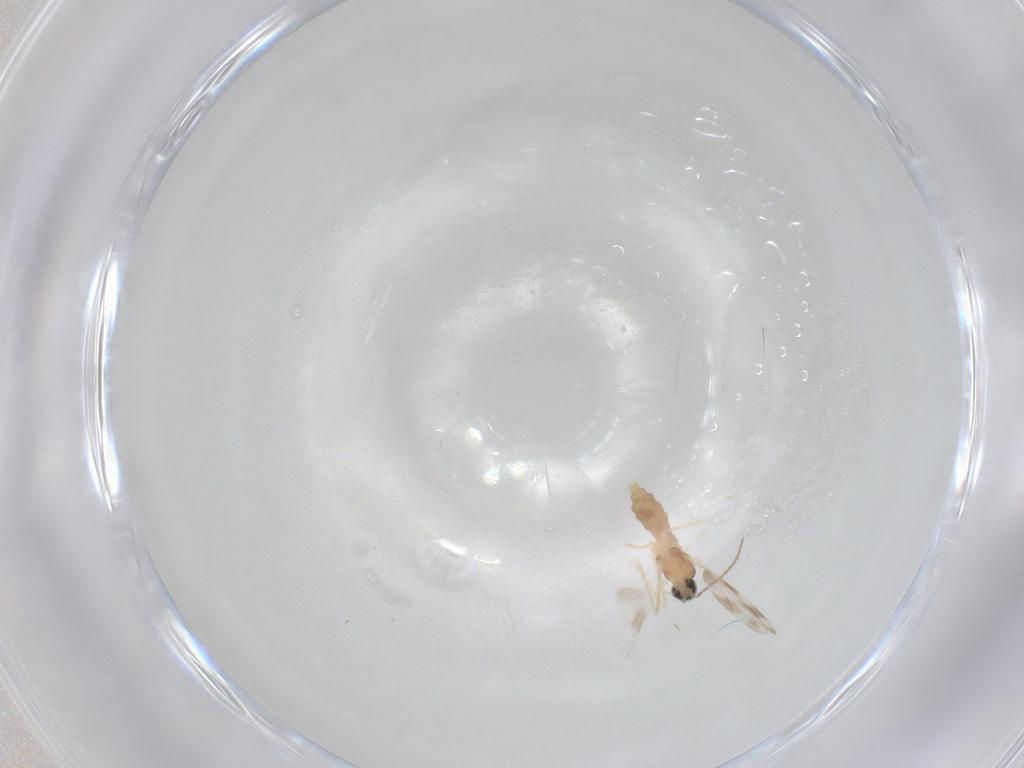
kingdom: Animalia
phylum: Arthropoda
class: Insecta
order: Diptera
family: Cecidomyiidae
